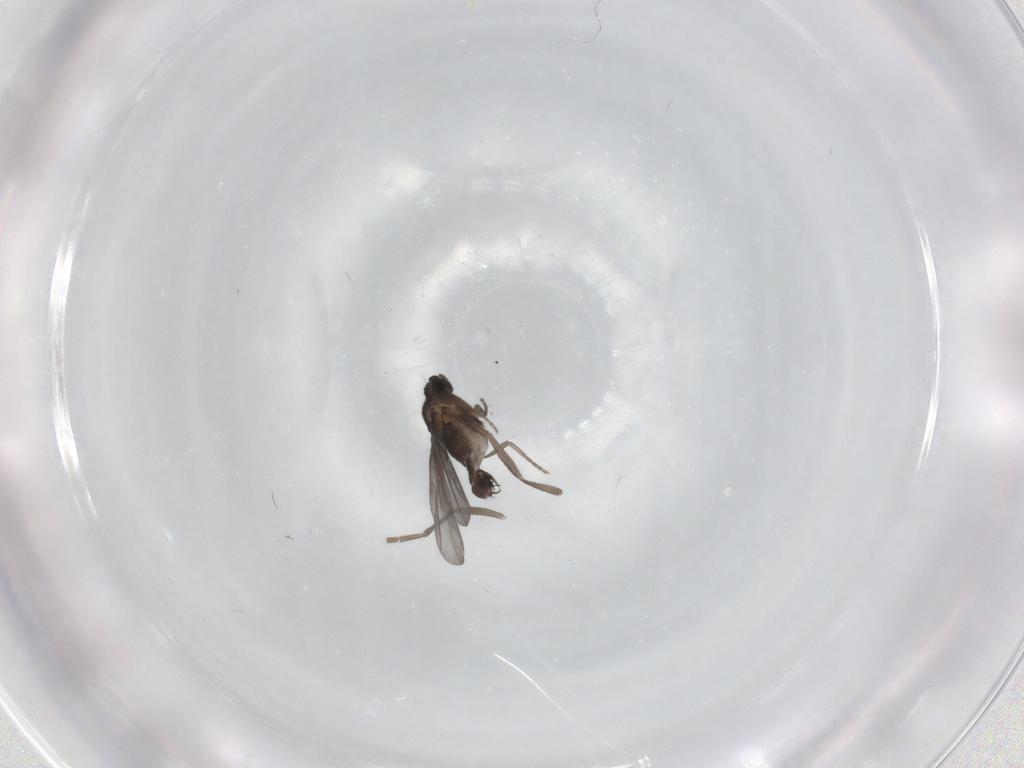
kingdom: Animalia
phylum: Arthropoda
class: Insecta
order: Diptera
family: Phoridae
